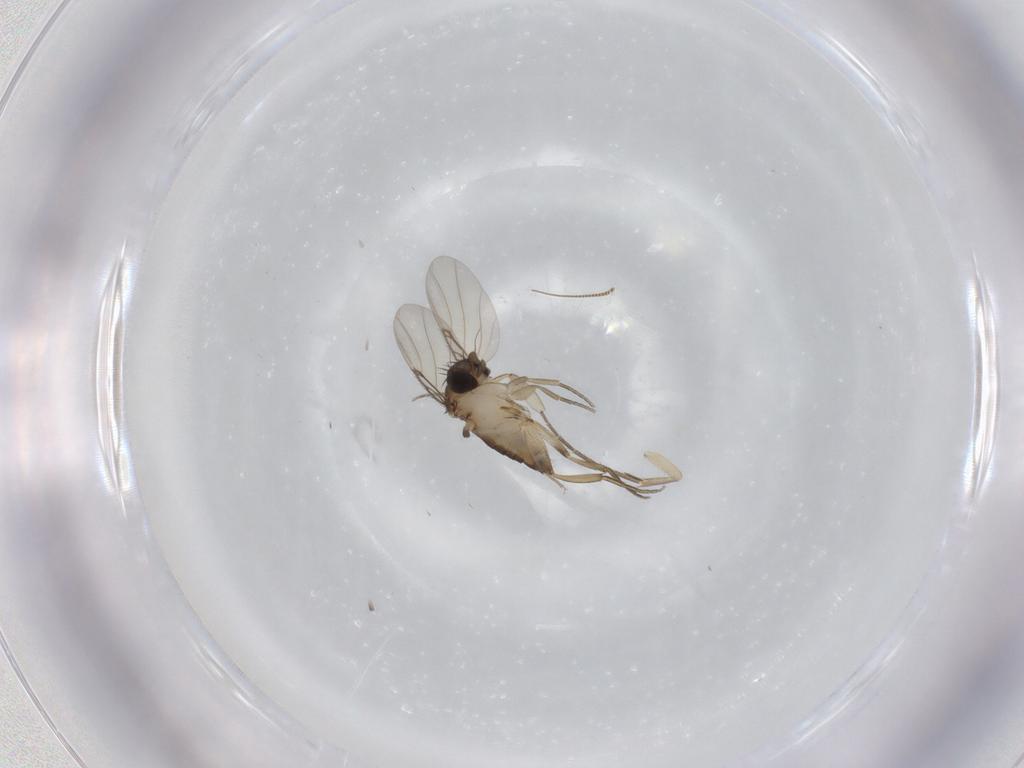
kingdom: Animalia
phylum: Arthropoda
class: Insecta
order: Diptera
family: Phoridae
